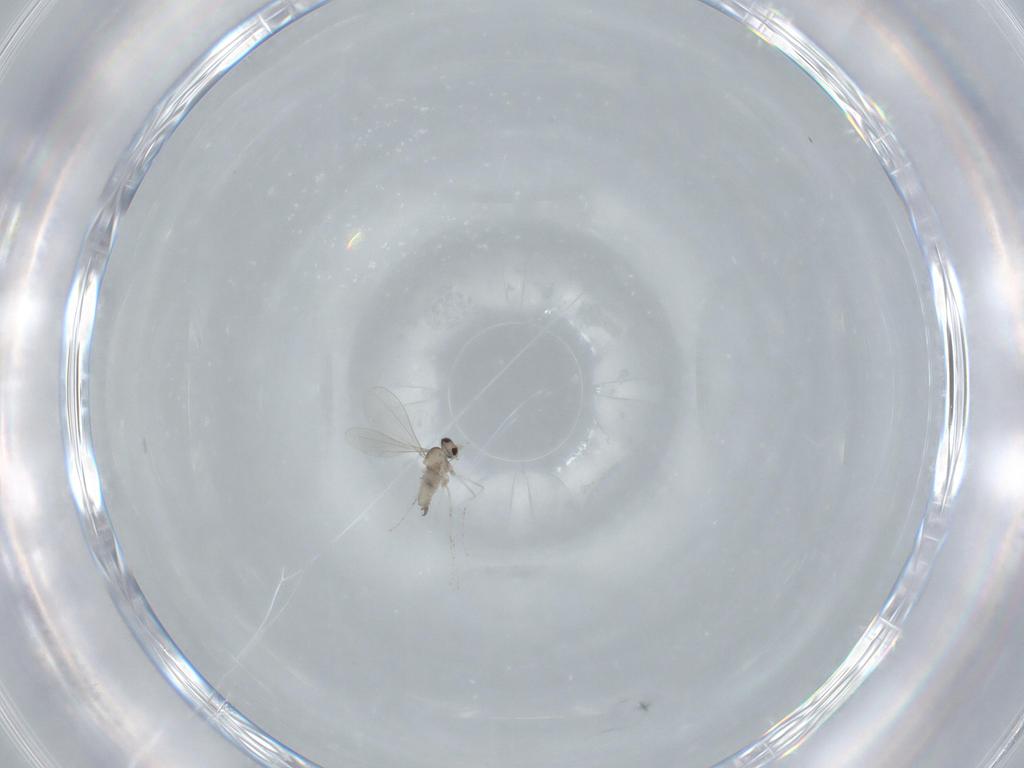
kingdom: Animalia
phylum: Arthropoda
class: Insecta
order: Diptera
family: Cecidomyiidae
